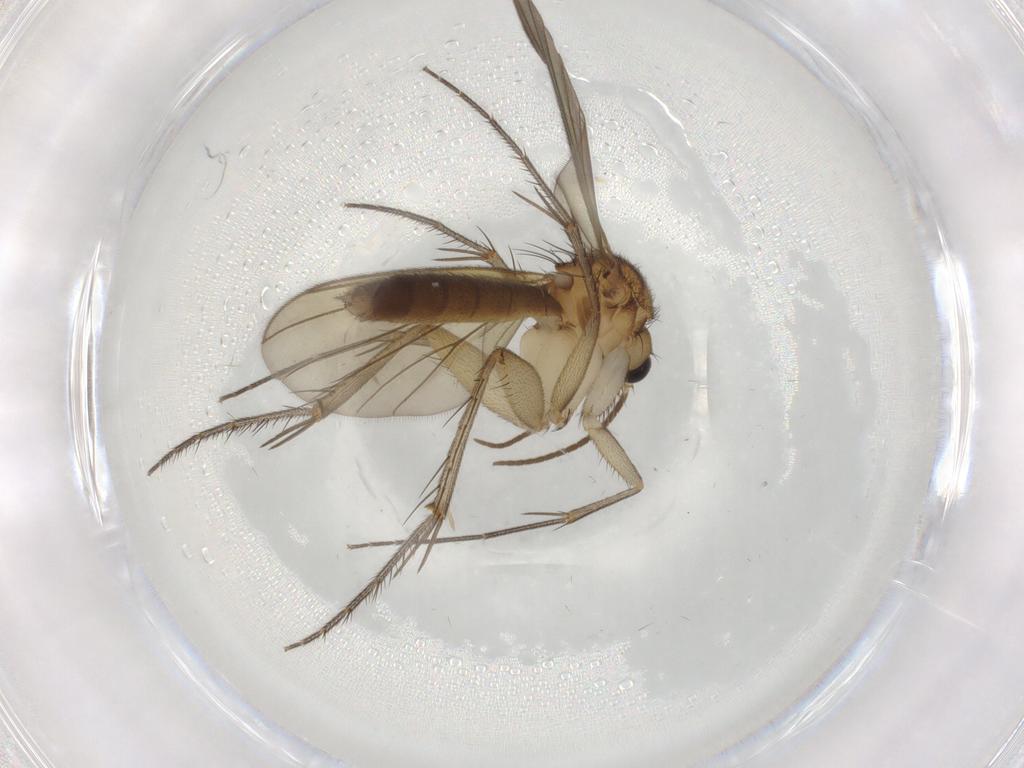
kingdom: Animalia
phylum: Arthropoda
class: Insecta
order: Diptera
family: Mycetophilidae
